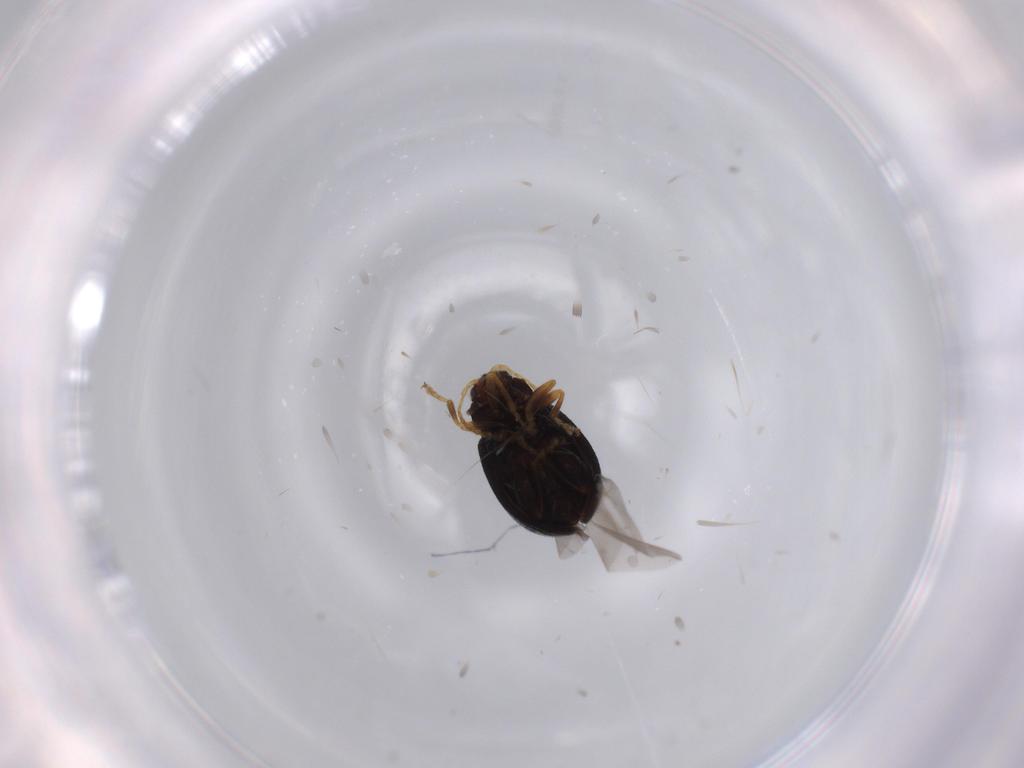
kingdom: Animalia
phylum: Arthropoda
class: Insecta
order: Coleoptera
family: Chrysomelidae
